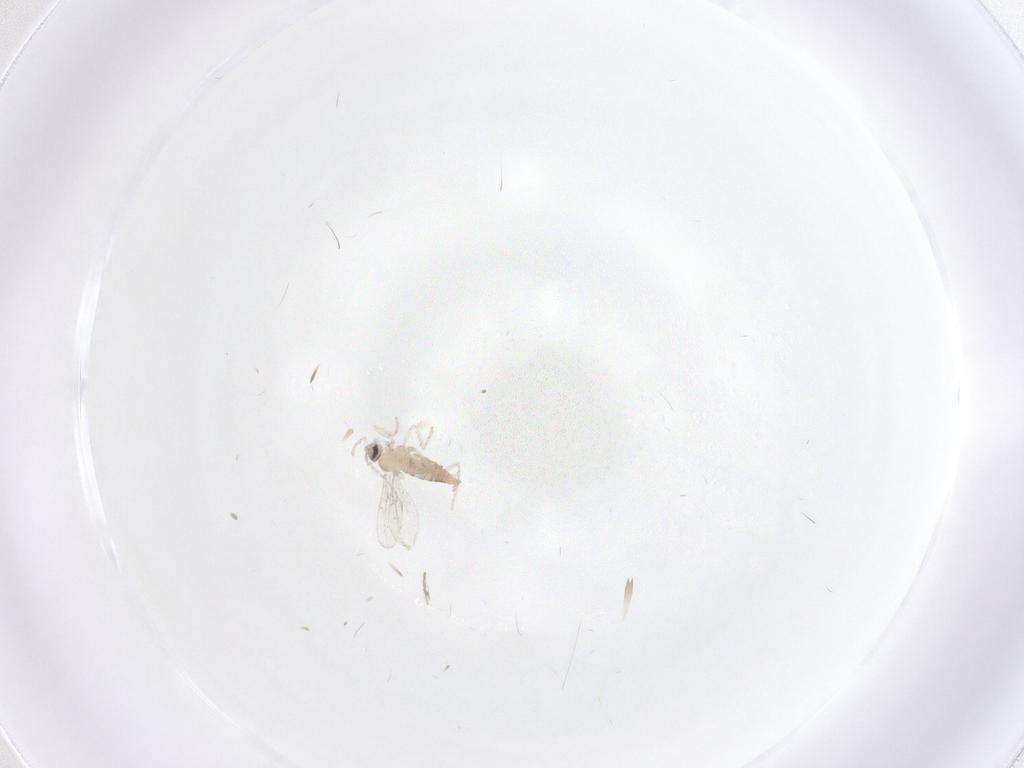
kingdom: Animalia
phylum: Arthropoda
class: Insecta
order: Diptera
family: Cecidomyiidae
